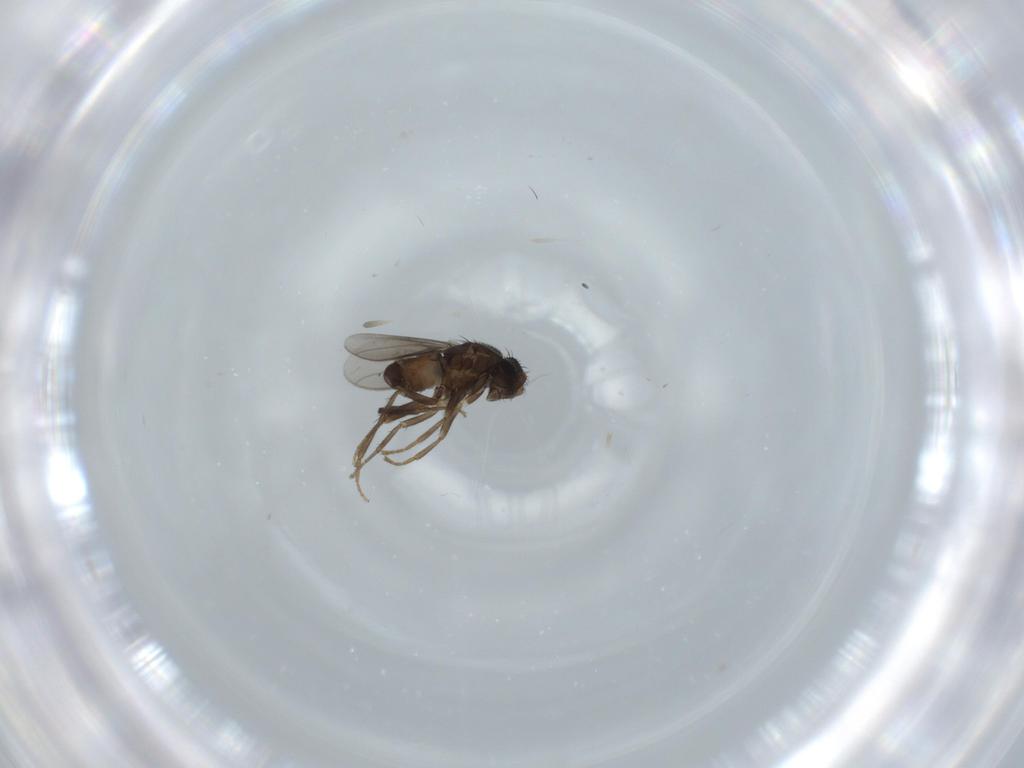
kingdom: Animalia
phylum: Arthropoda
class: Insecta
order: Diptera
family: Sphaeroceridae
